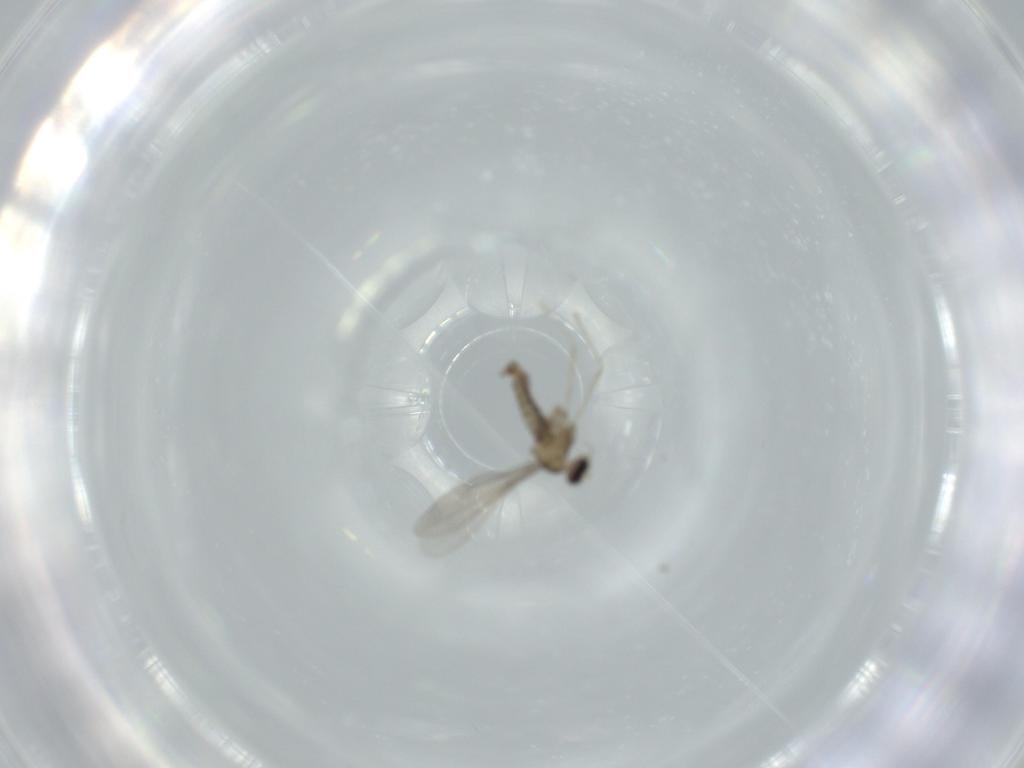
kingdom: Animalia
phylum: Arthropoda
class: Insecta
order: Diptera
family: Cecidomyiidae
